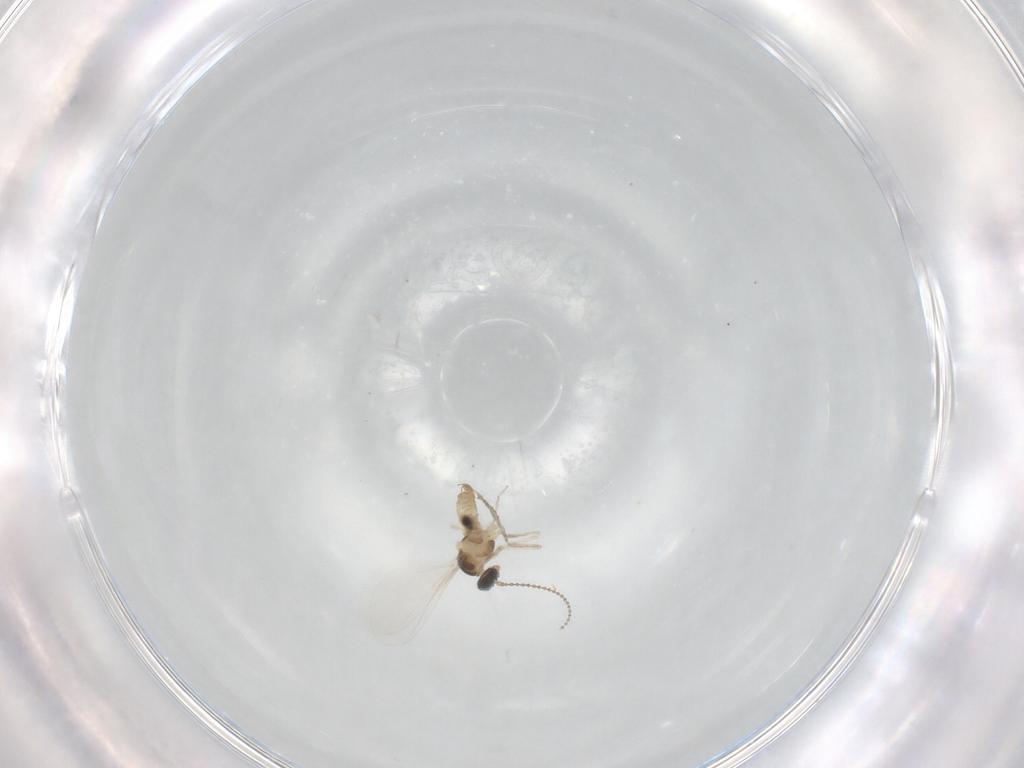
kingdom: Animalia
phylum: Arthropoda
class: Insecta
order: Diptera
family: Cecidomyiidae
